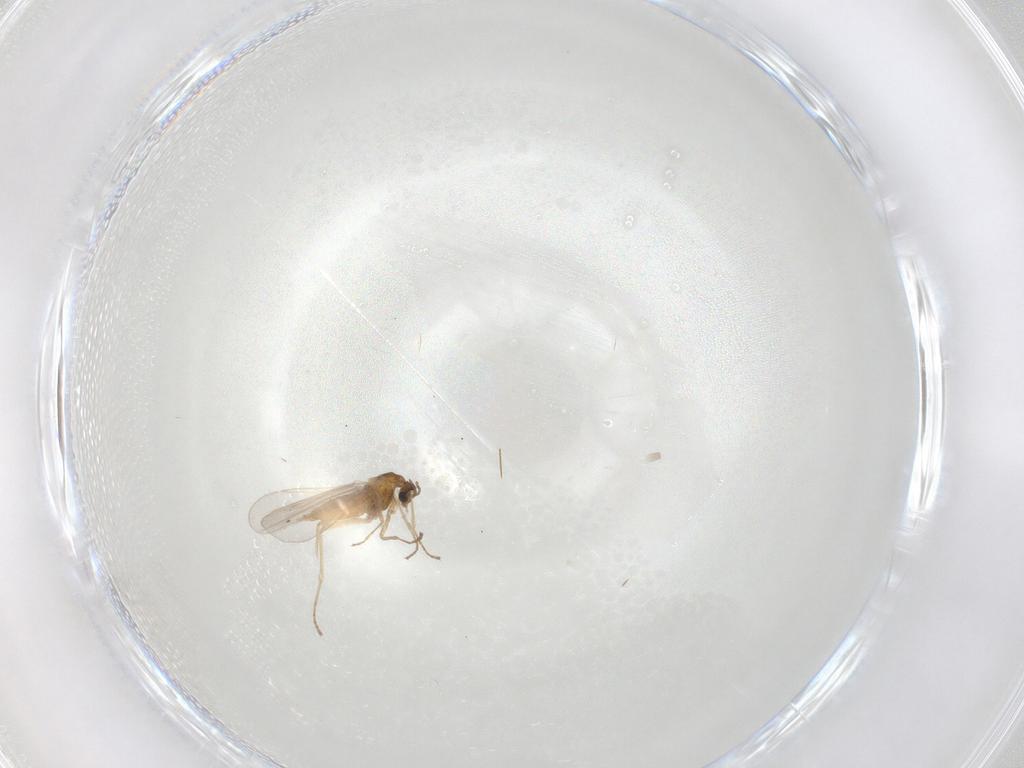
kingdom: Animalia
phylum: Arthropoda
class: Insecta
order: Diptera
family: Cecidomyiidae
